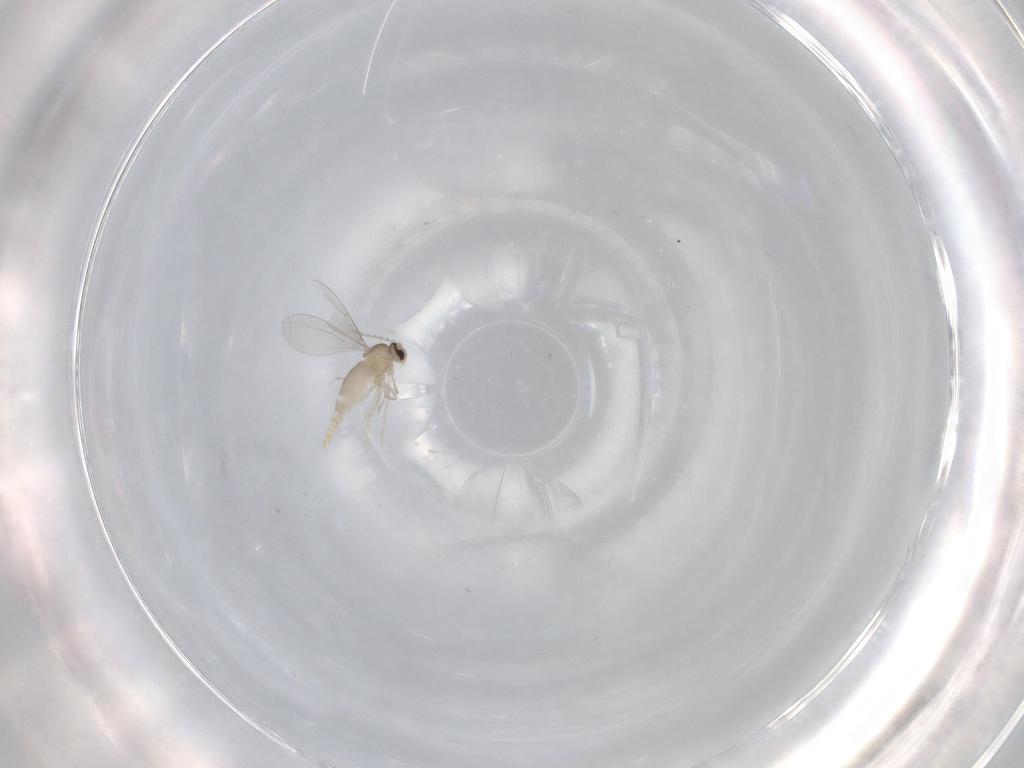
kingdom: Animalia
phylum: Arthropoda
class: Insecta
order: Diptera
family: Cecidomyiidae
